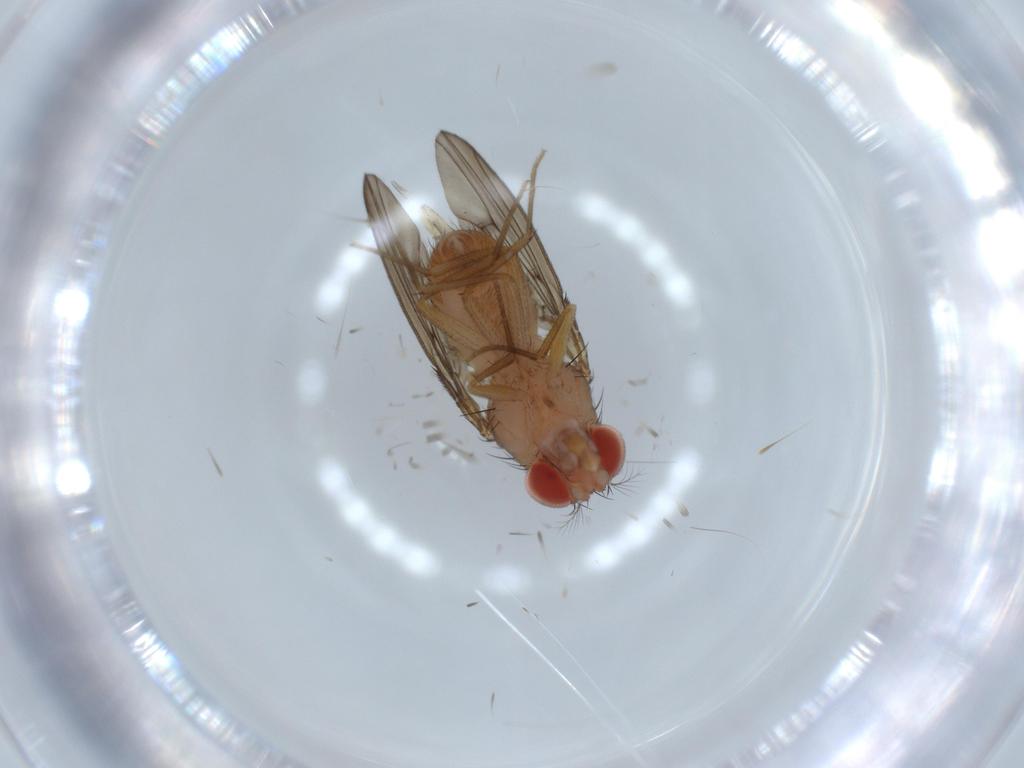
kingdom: Animalia
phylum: Arthropoda
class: Insecta
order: Diptera
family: Drosophilidae
